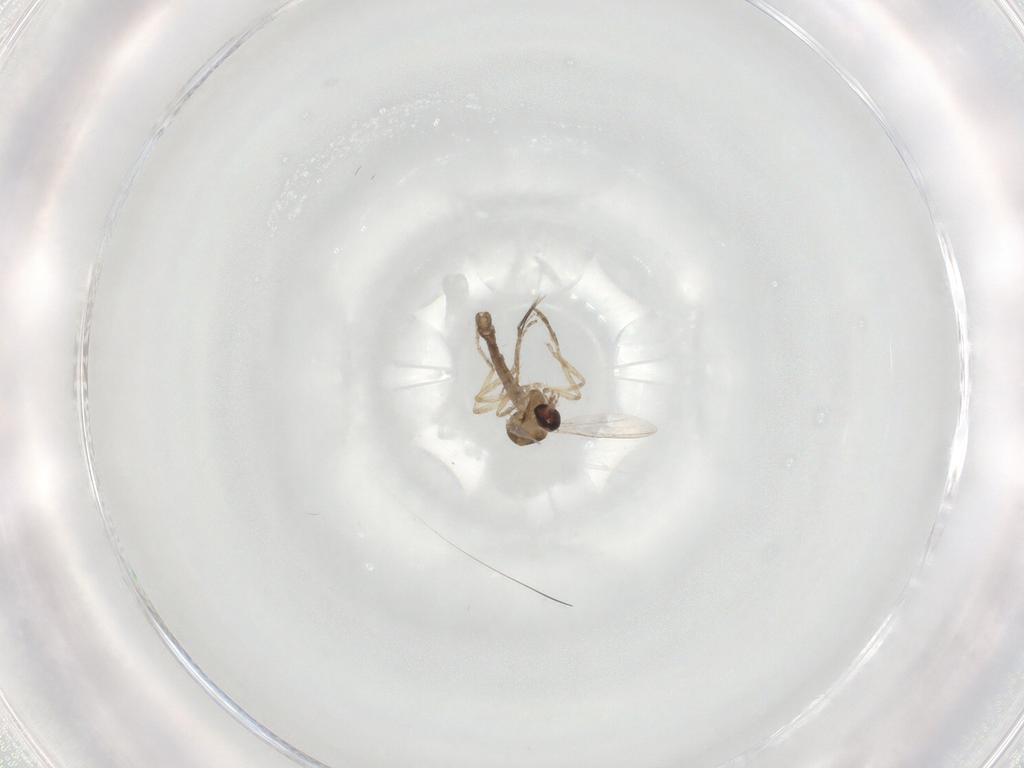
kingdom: Animalia
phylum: Arthropoda
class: Insecta
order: Diptera
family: Ceratopogonidae
